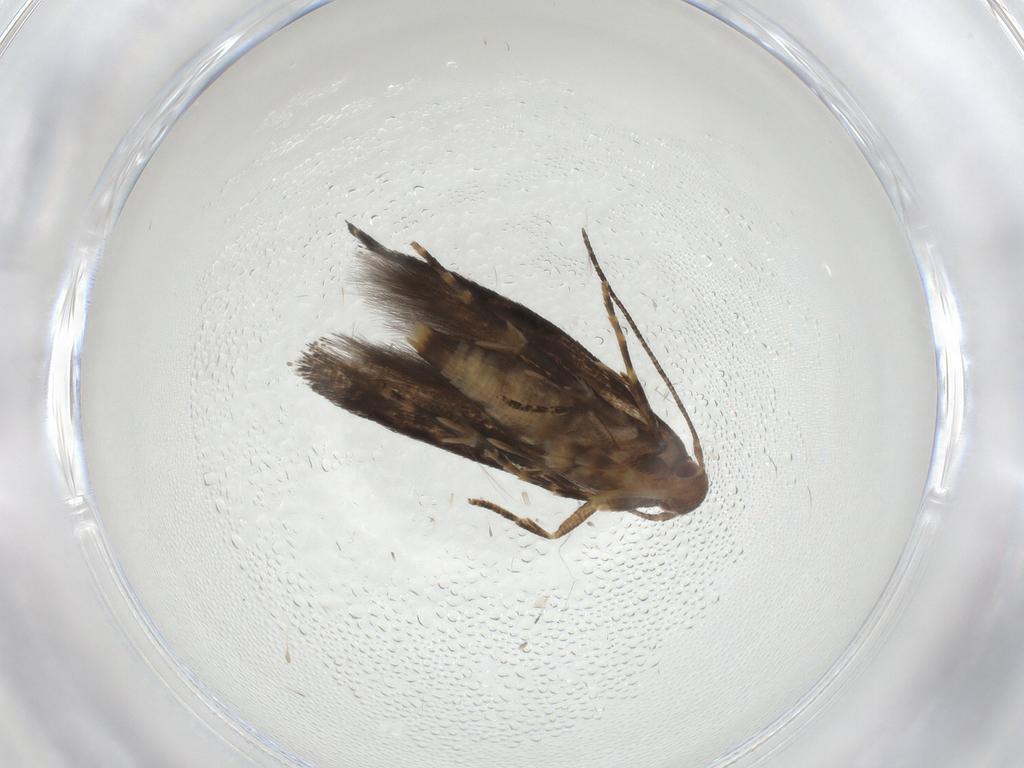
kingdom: Animalia
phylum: Arthropoda
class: Insecta
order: Lepidoptera
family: Momphidae
